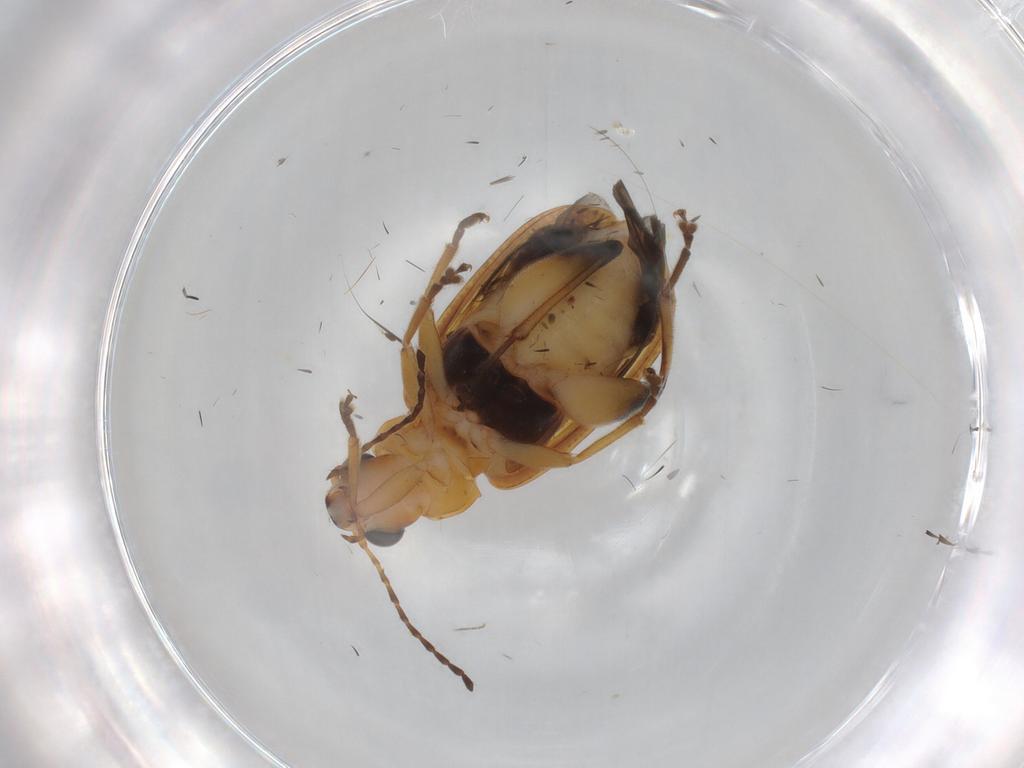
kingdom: Animalia
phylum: Arthropoda
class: Insecta
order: Coleoptera
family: Chrysomelidae
